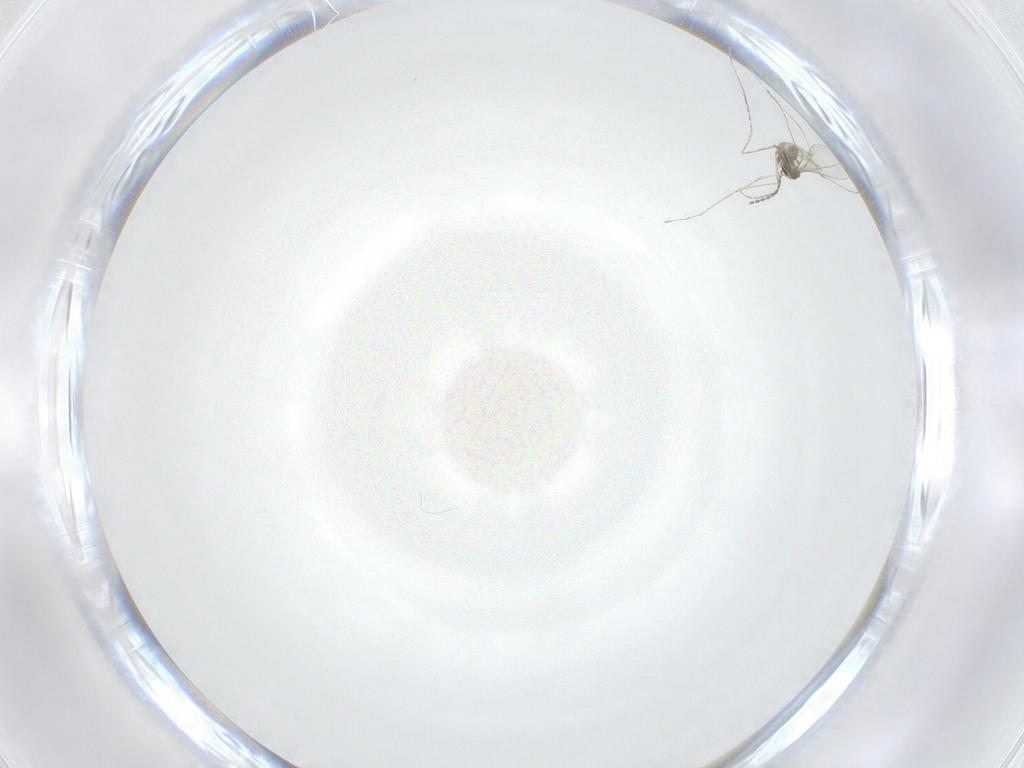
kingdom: Animalia
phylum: Arthropoda
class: Insecta
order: Diptera
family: Cecidomyiidae
